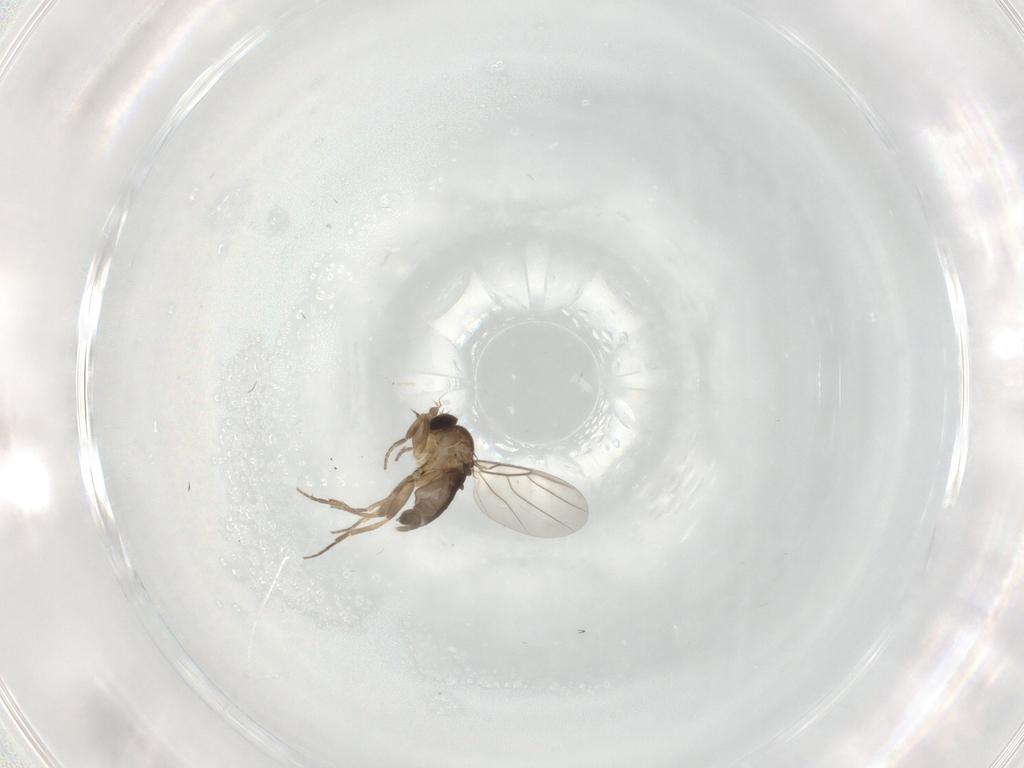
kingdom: Animalia
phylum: Arthropoda
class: Insecta
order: Diptera
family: Phoridae
